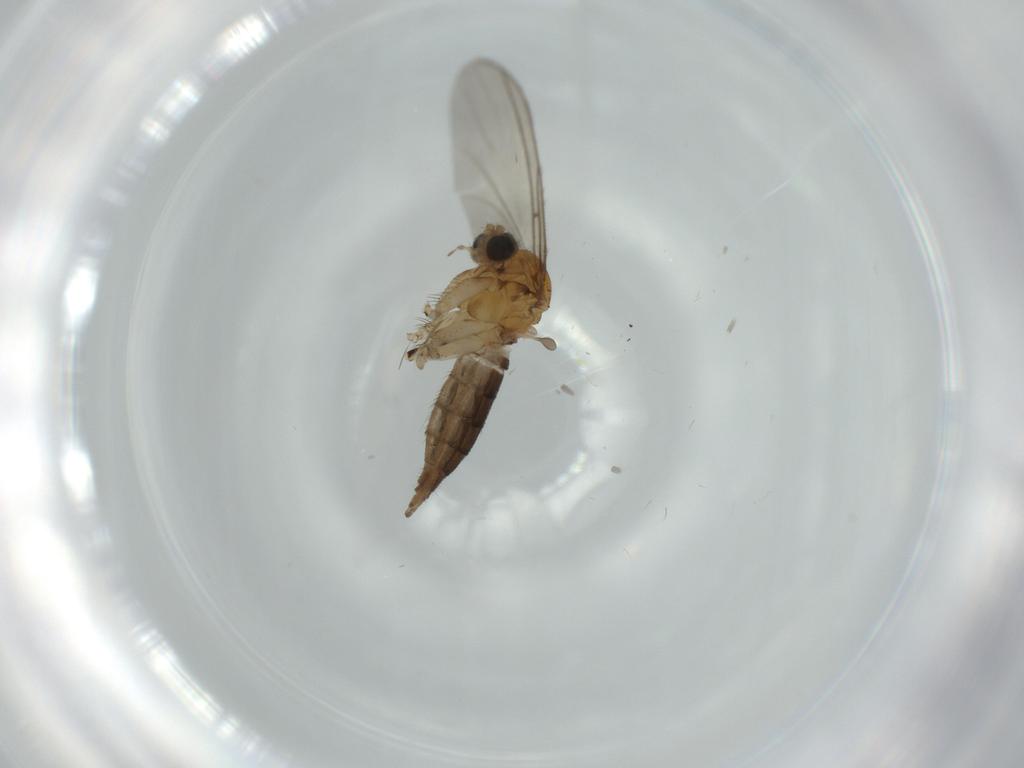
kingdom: Animalia
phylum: Arthropoda
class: Insecta
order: Diptera
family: Sciaridae
